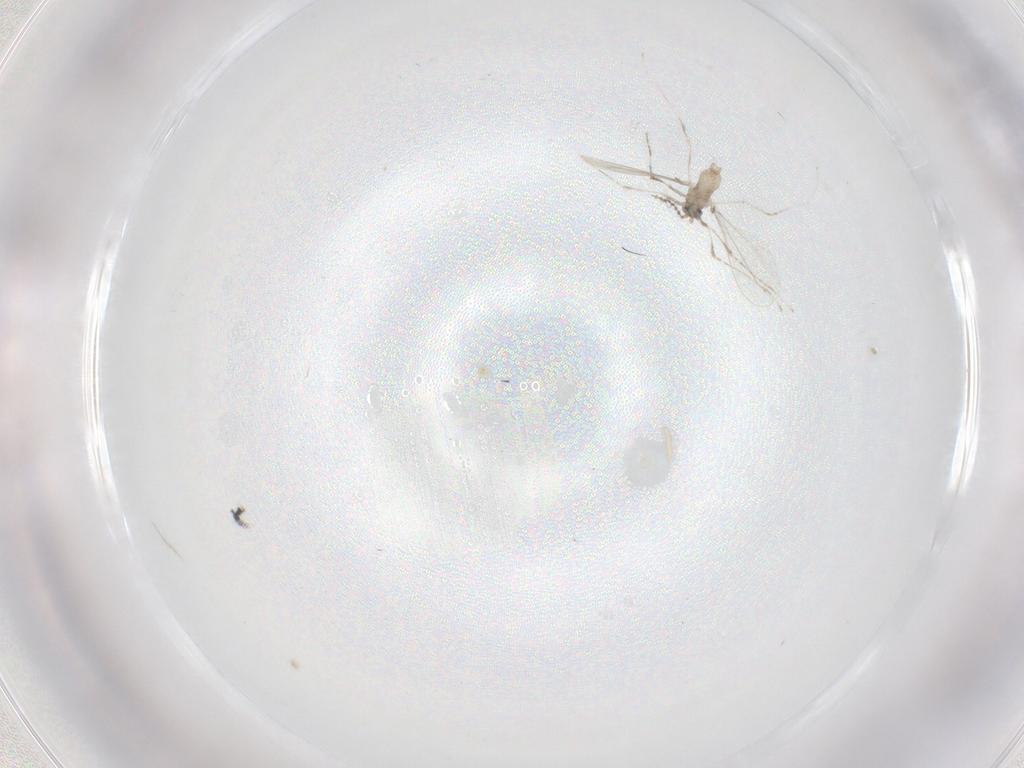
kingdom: Animalia
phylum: Arthropoda
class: Insecta
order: Diptera
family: Cecidomyiidae
